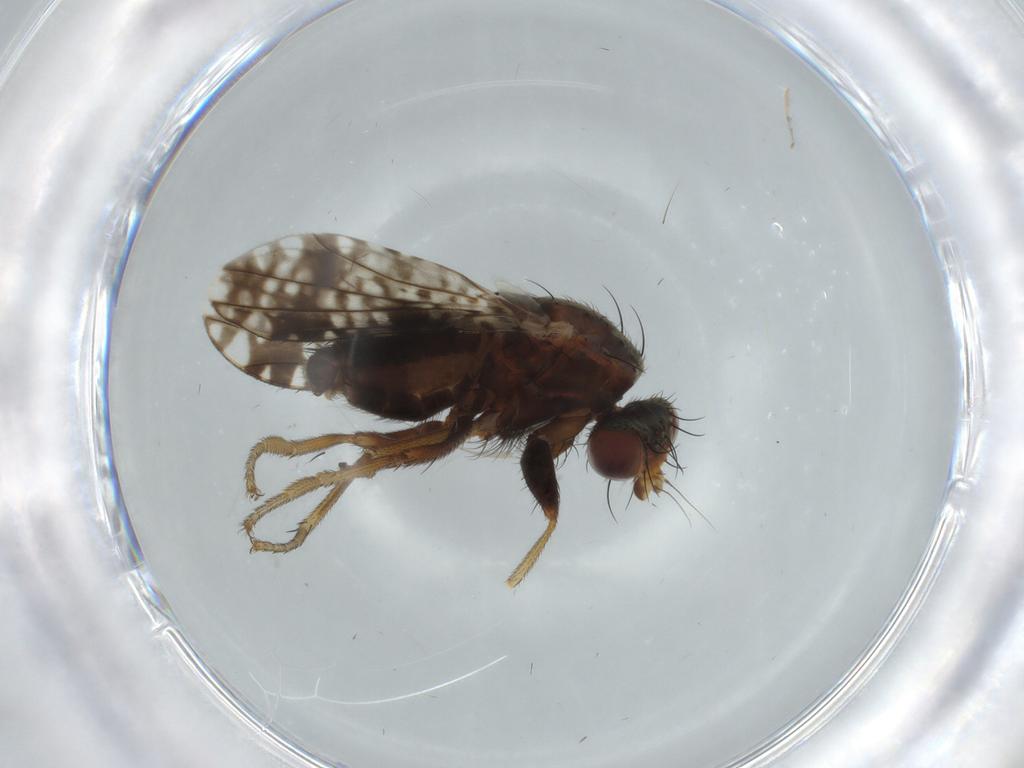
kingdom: Animalia
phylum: Arthropoda
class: Insecta
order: Diptera
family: Tephritidae
